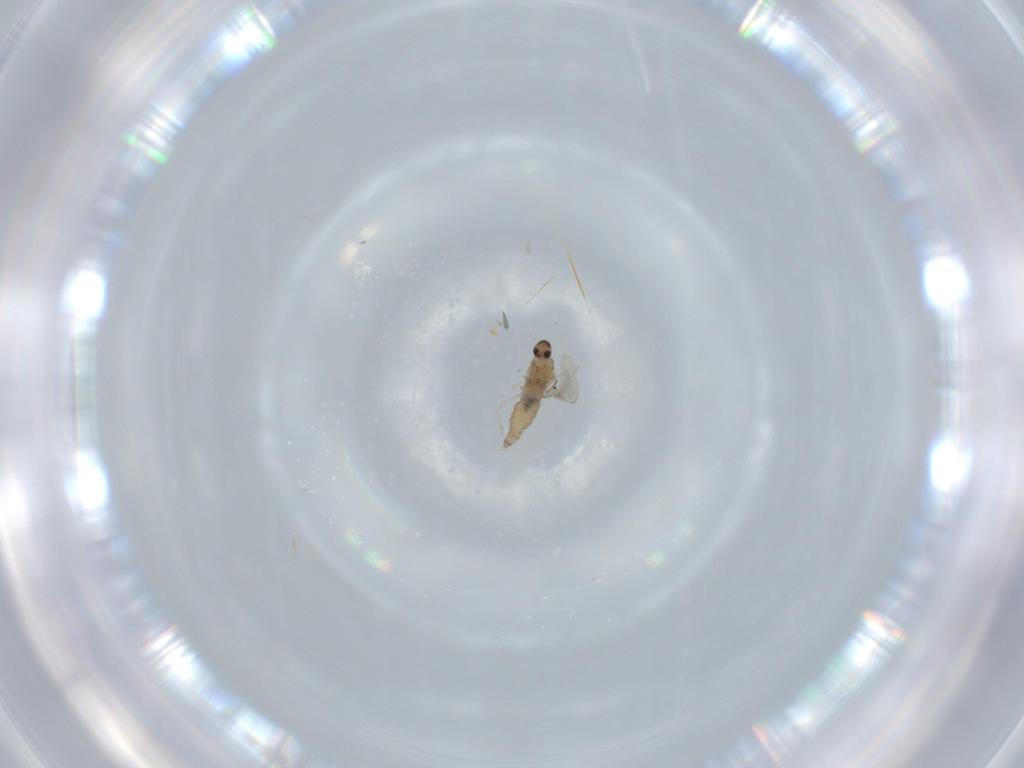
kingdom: Animalia
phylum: Arthropoda
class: Insecta
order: Diptera
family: Cecidomyiidae
